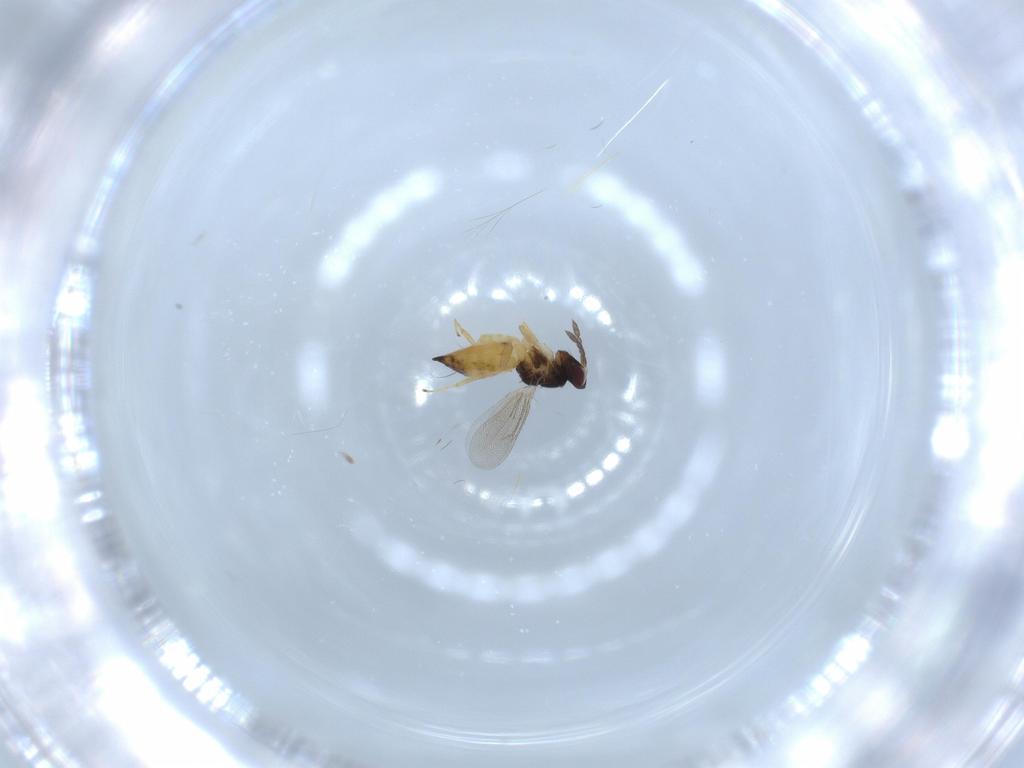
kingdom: Animalia
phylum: Arthropoda
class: Insecta
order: Hymenoptera
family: Eulophidae
